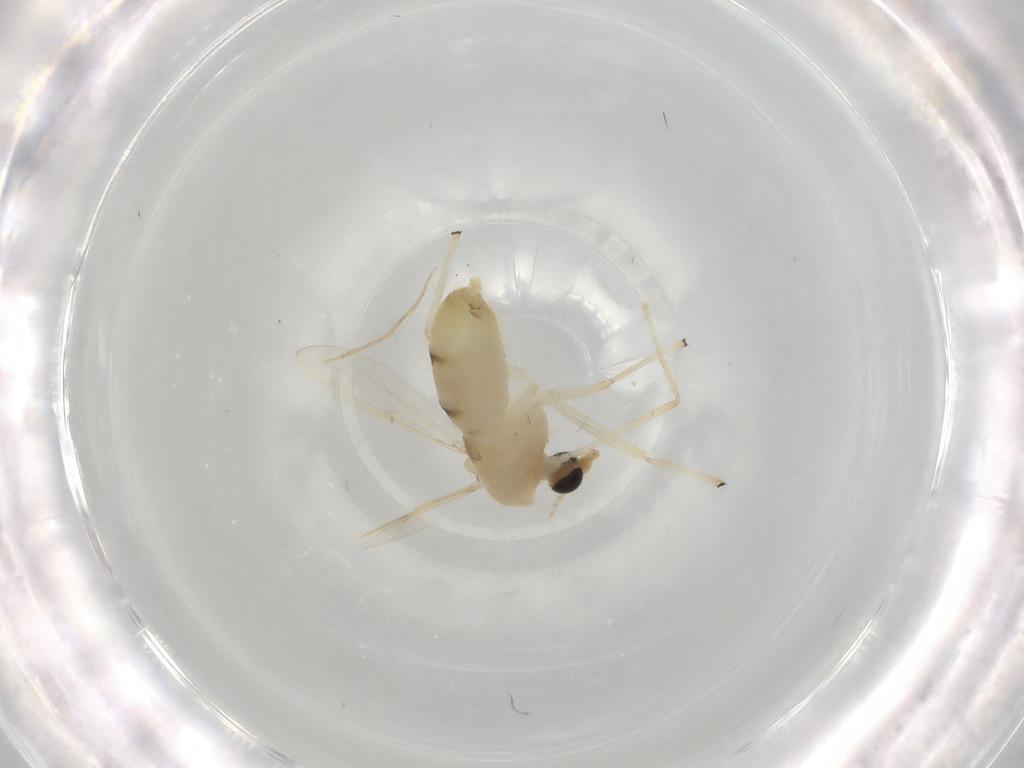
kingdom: Animalia
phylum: Arthropoda
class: Insecta
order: Diptera
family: Chironomidae
